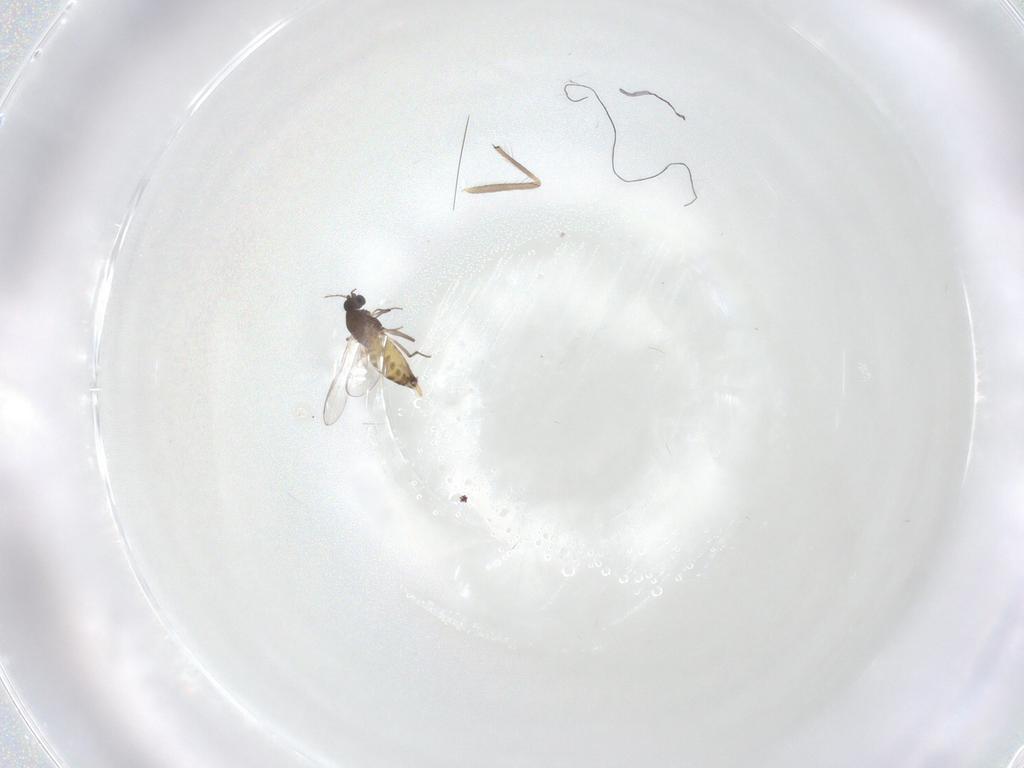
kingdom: Animalia
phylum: Arthropoda
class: Insecta
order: Diptera
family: Chironomidae
